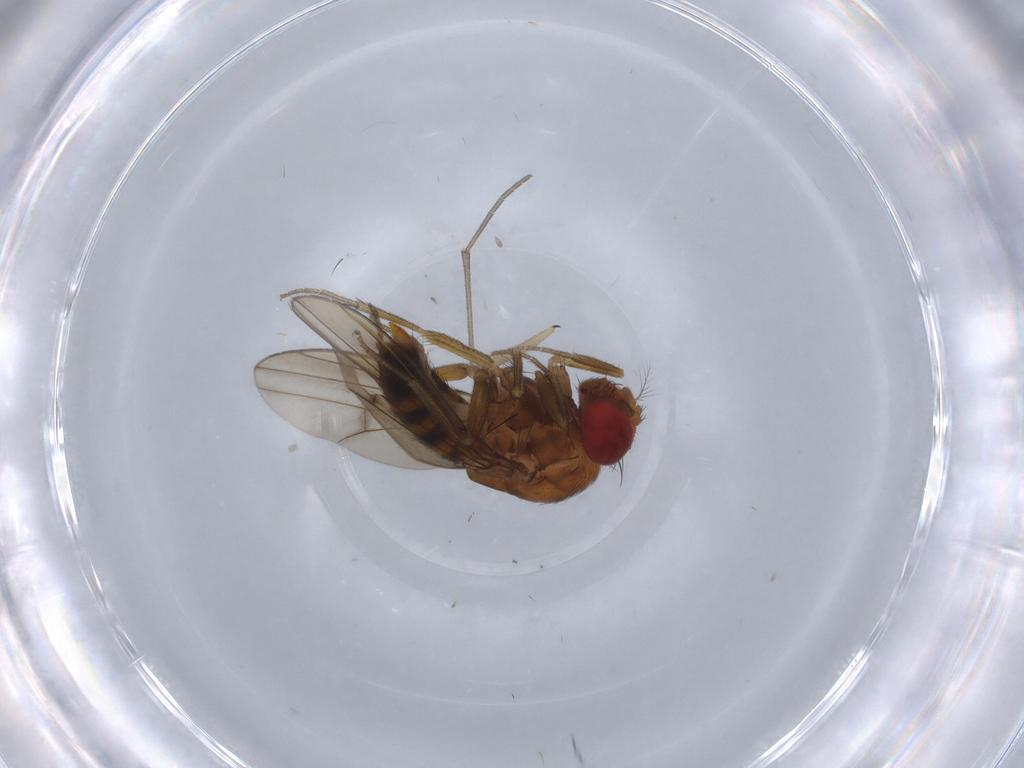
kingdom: Animalia
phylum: Arthropoda
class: Insecta
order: Diptera
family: Drosophilidae
